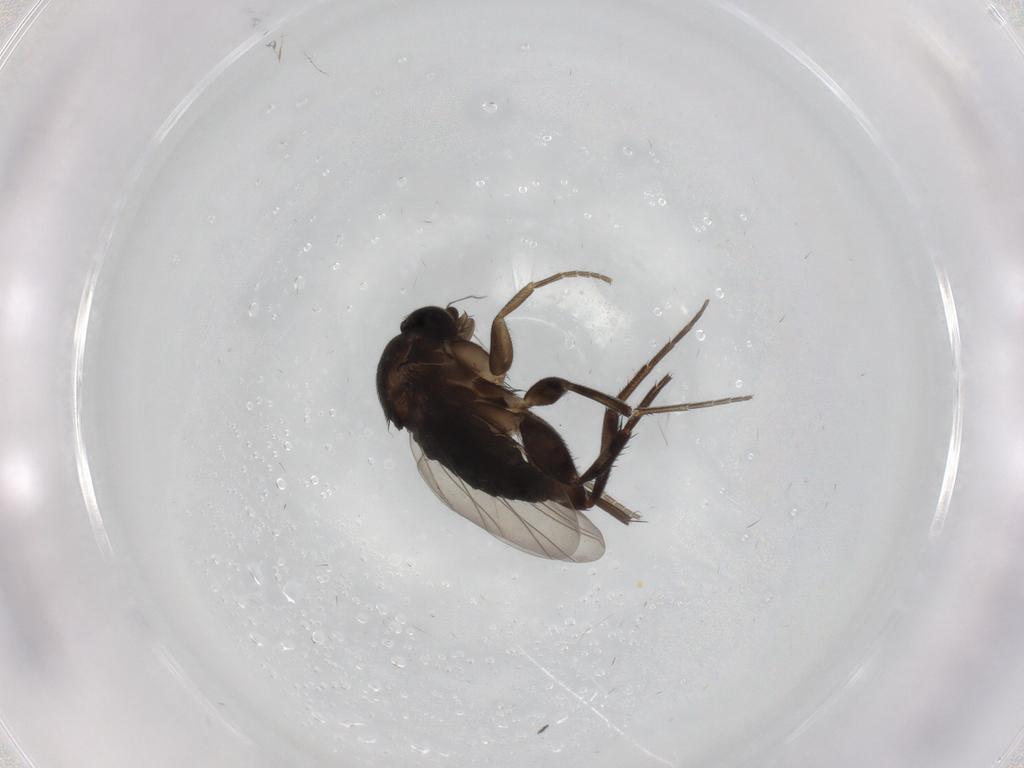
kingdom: Animalia
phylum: Arthropoda
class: Insecta
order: Diptera
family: Phoridae
